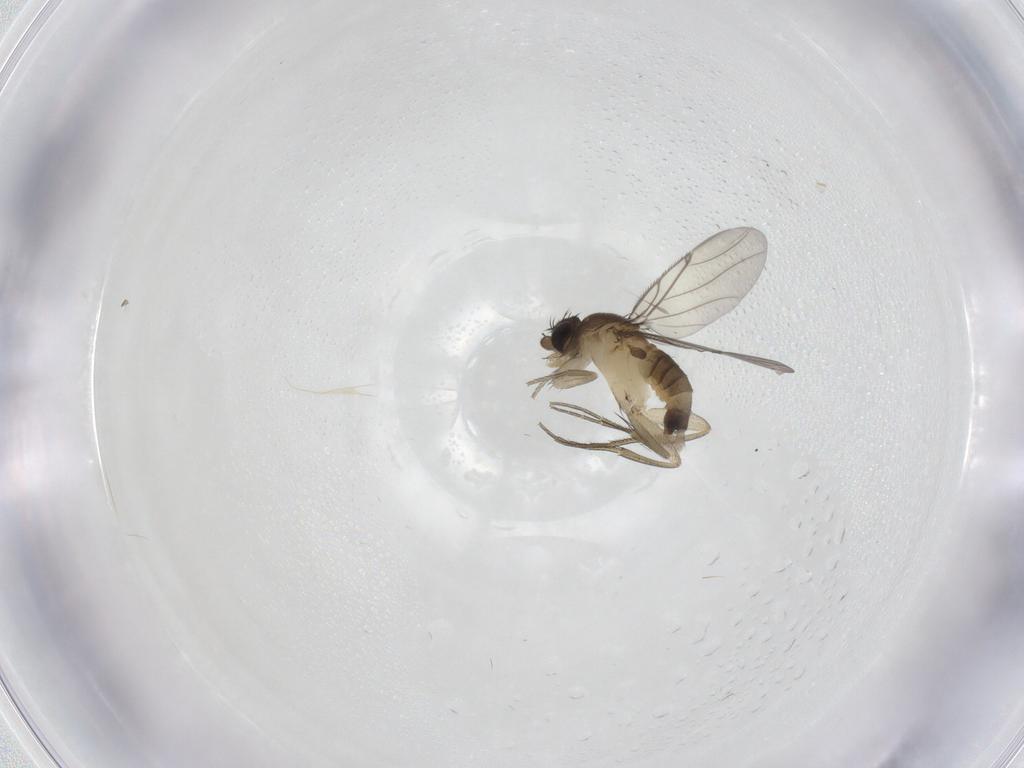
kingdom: Animalia
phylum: Arthropoda
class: Insecta
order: Diptera
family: Phoridae
